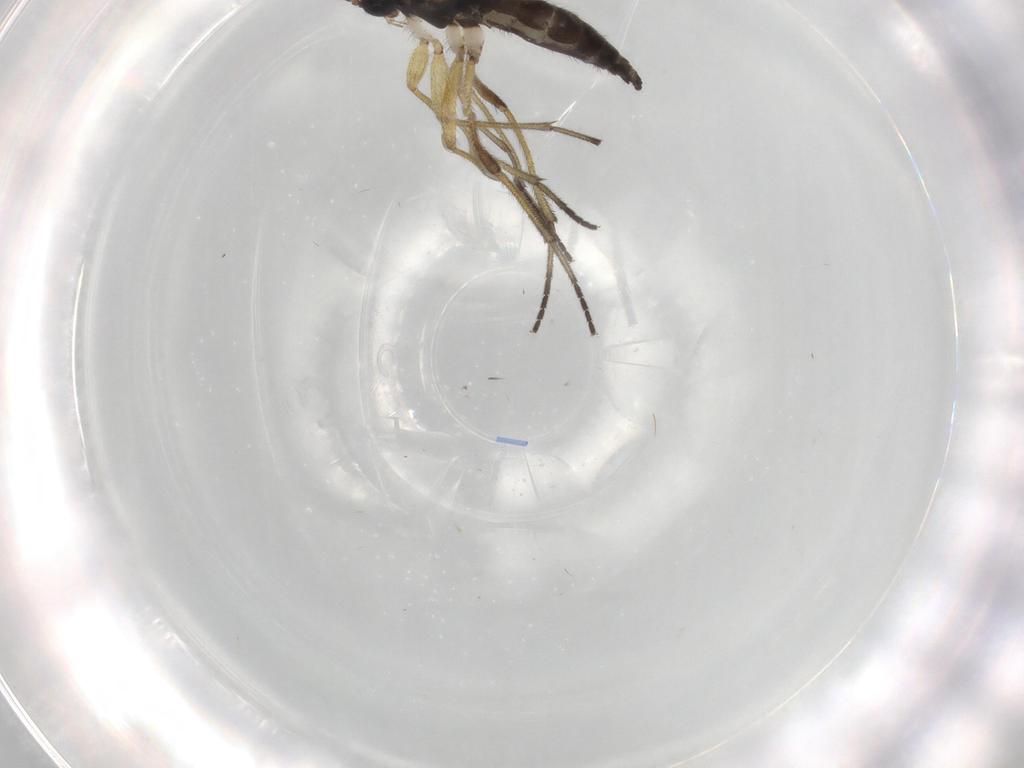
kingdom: Animalia
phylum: Arthropoda
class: Insecta
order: Diptera
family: Sciaridae
